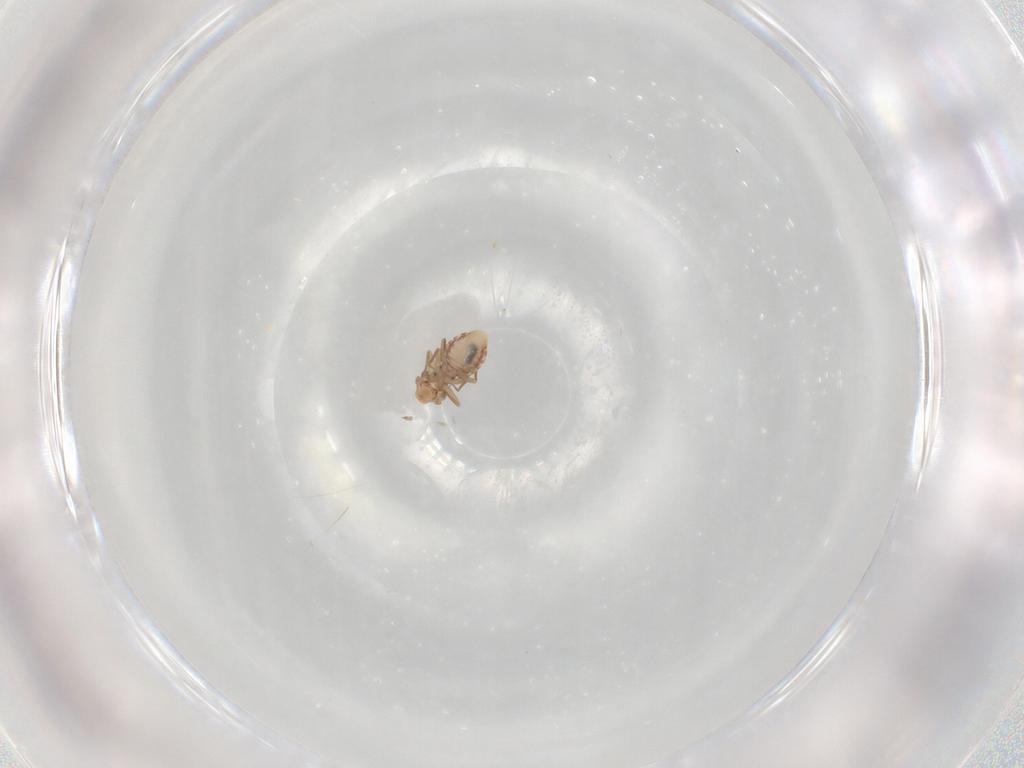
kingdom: Animalia
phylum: Arthropoda
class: Insecta
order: Psocodea
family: Lepidopsocidae
